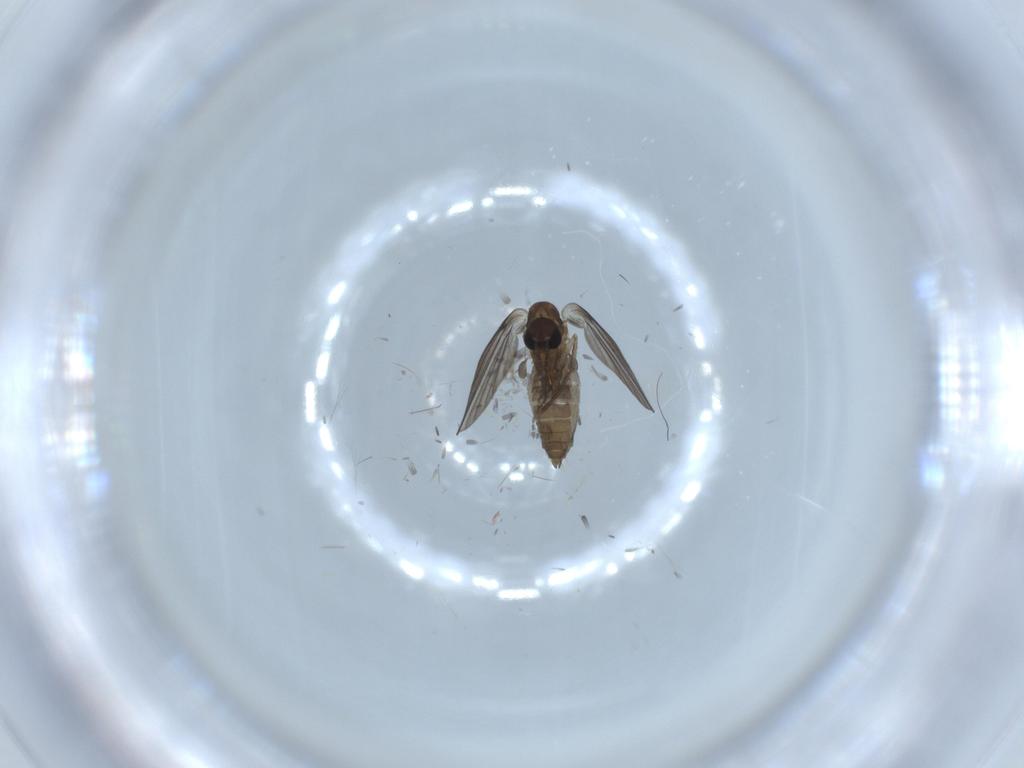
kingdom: Animalia
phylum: Arthropoda
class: Insecta
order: Diptera
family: Psychodidae
